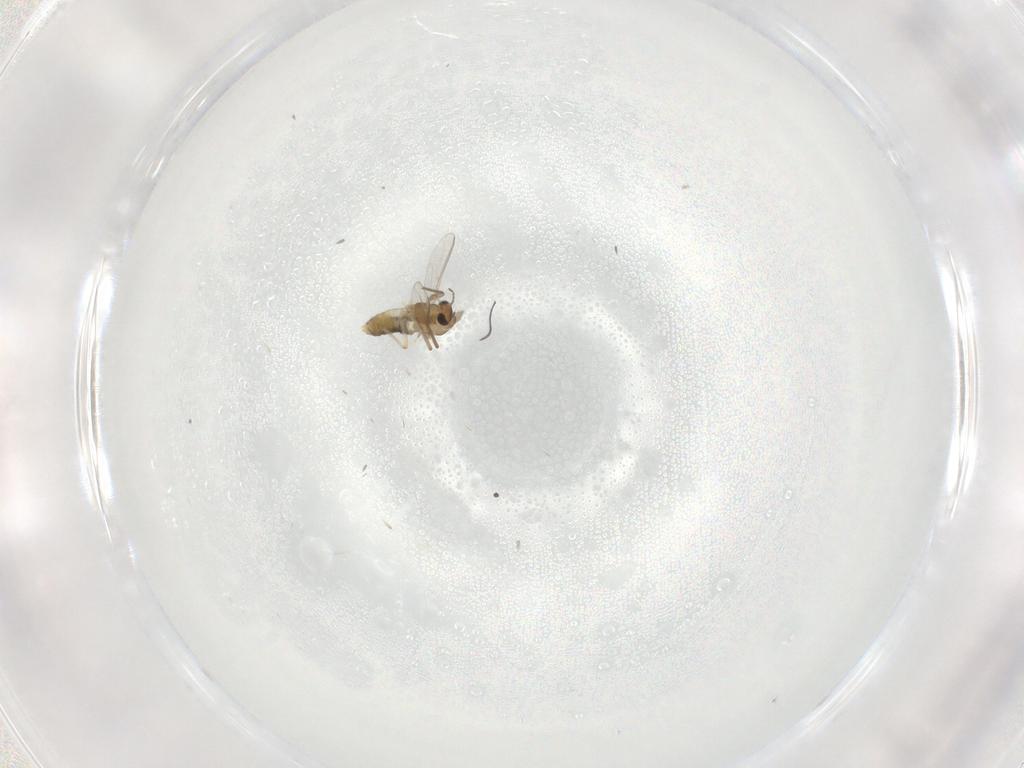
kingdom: Animalia
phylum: Arthropoda
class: Insecta
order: Diptera
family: Chironomidae
